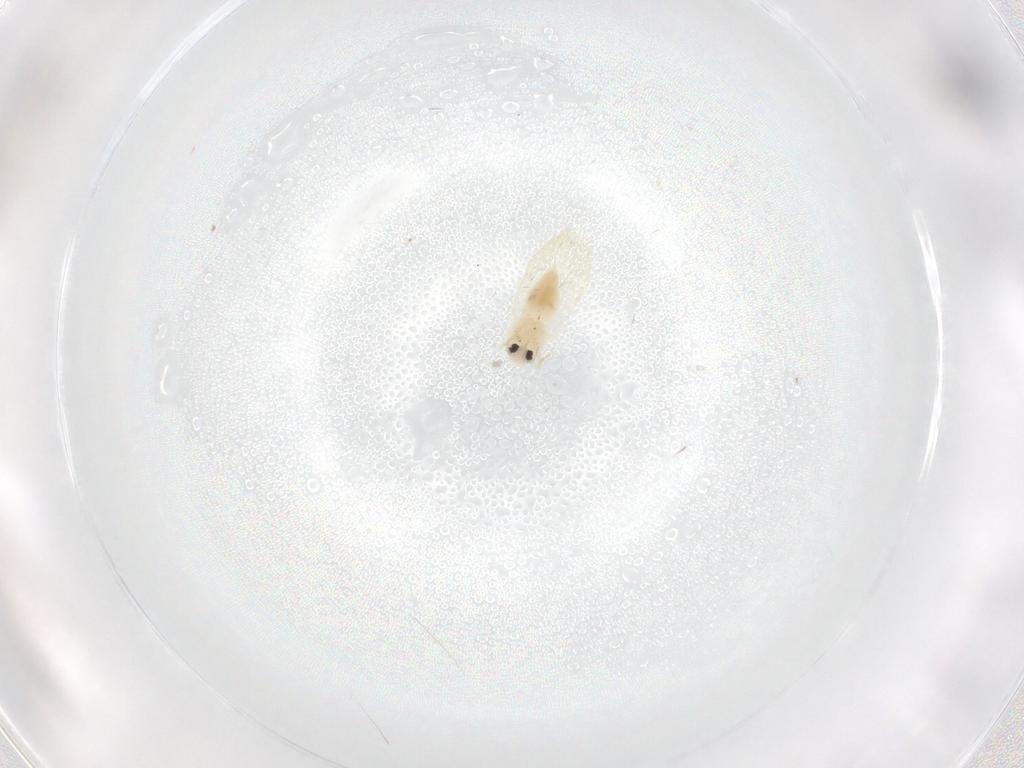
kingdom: Animalia
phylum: Arthropoda
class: Insecta
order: Hemiptera
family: Aleyrodidae
